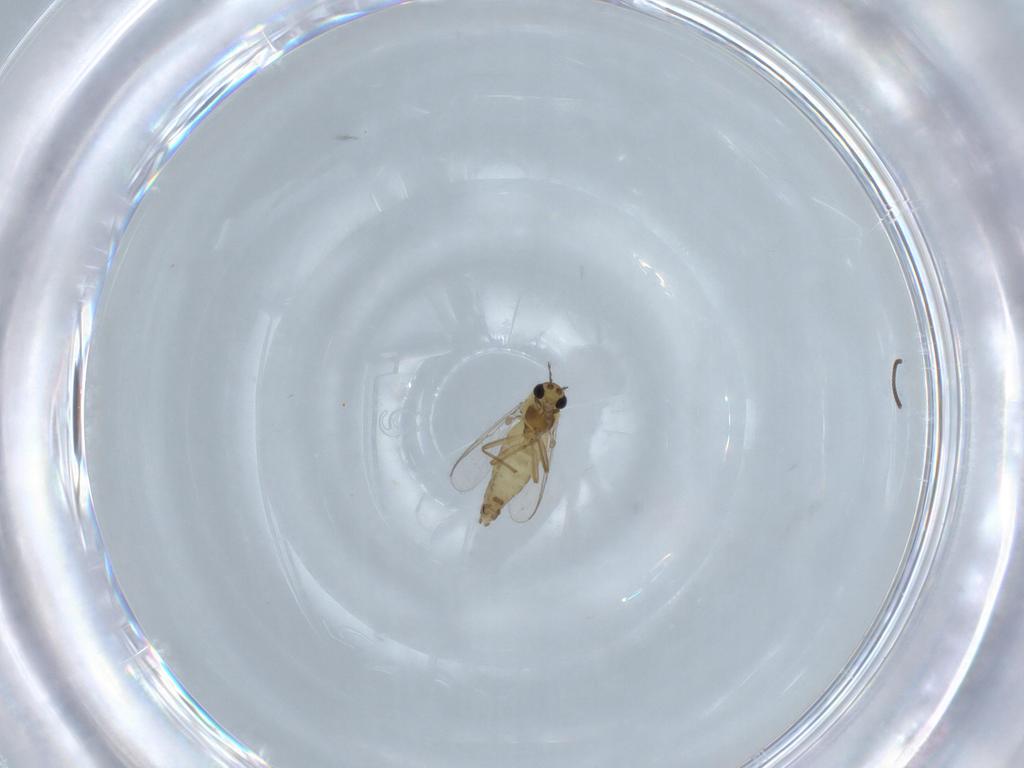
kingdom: Animalia
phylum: Arthropoda
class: Insecta
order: Diptera
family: Chironomidae
